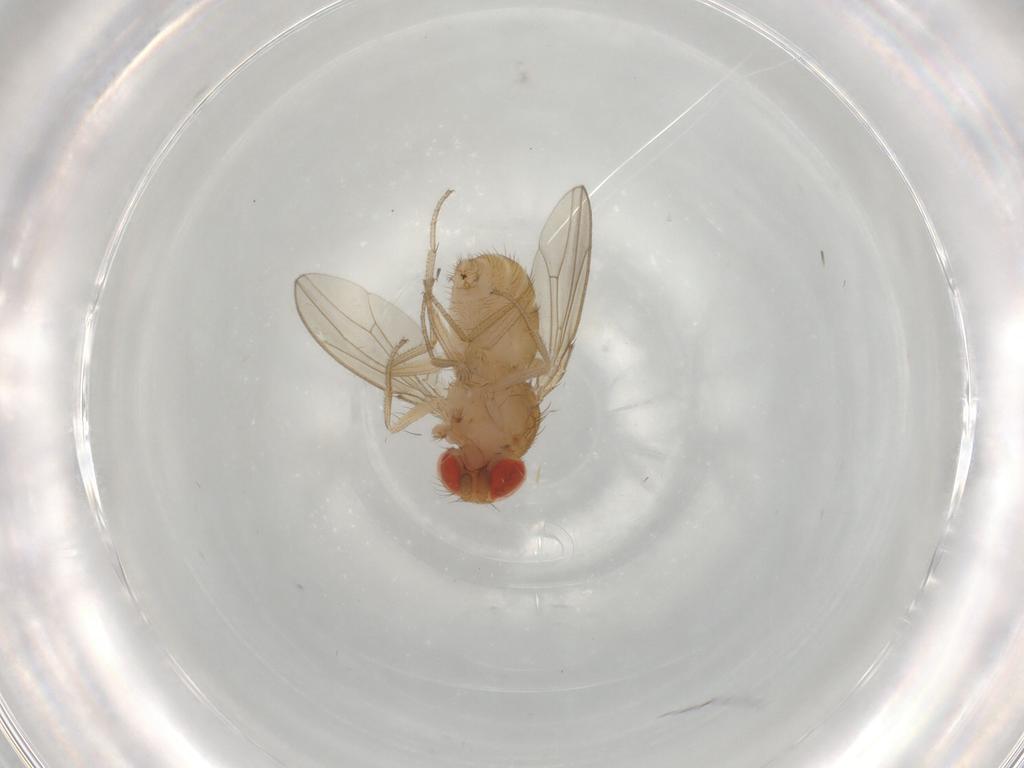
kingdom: Animalia
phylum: Arthropoda
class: Insecta
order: Diptera
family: Drosophilidae
